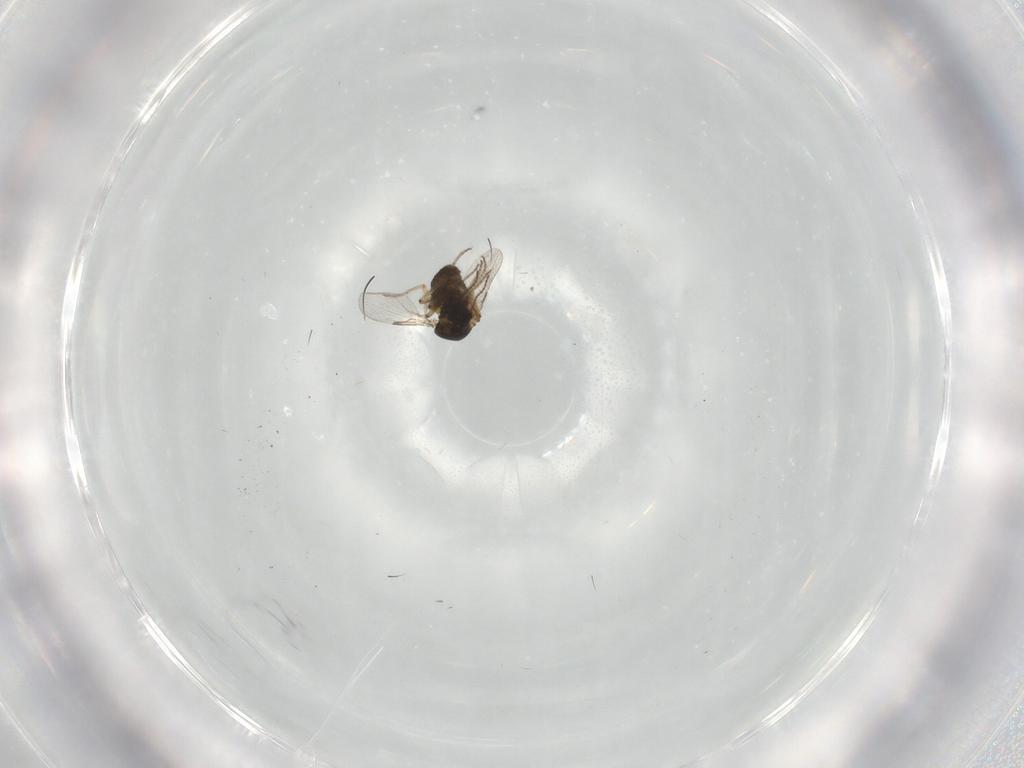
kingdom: Animalia
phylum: Arthropoda
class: Insecta
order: Diptera
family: Ceratopogonidae
